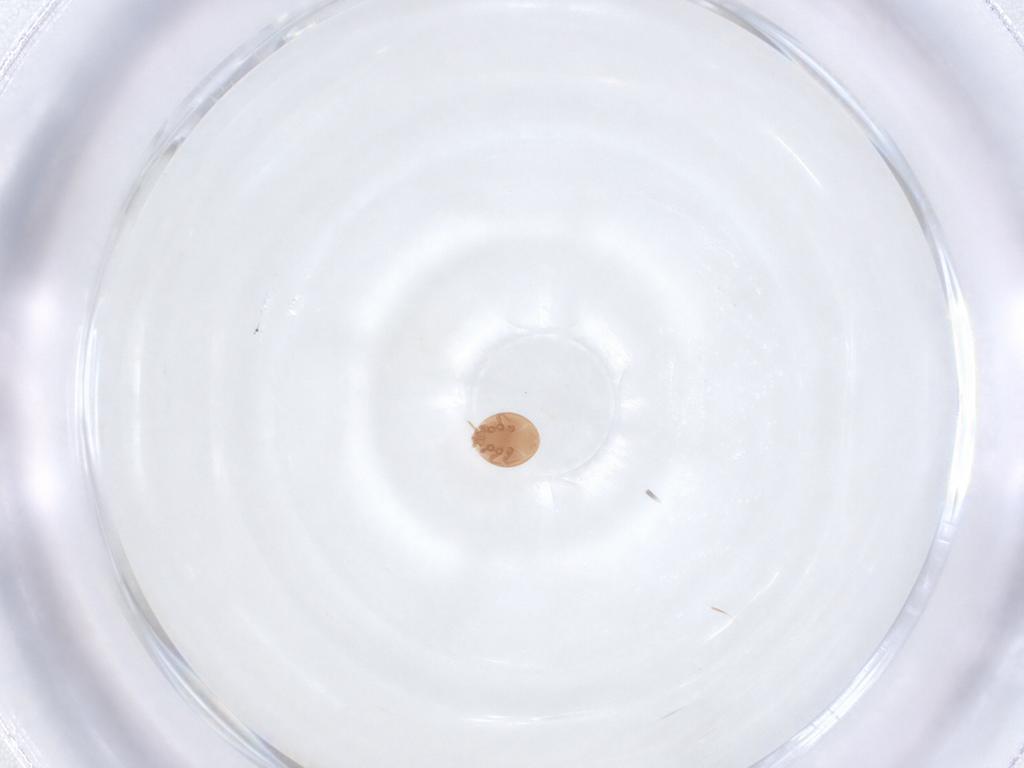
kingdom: Animalia
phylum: Arthropoda
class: Arachnida
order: Mesostigmata
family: Trematuridae
